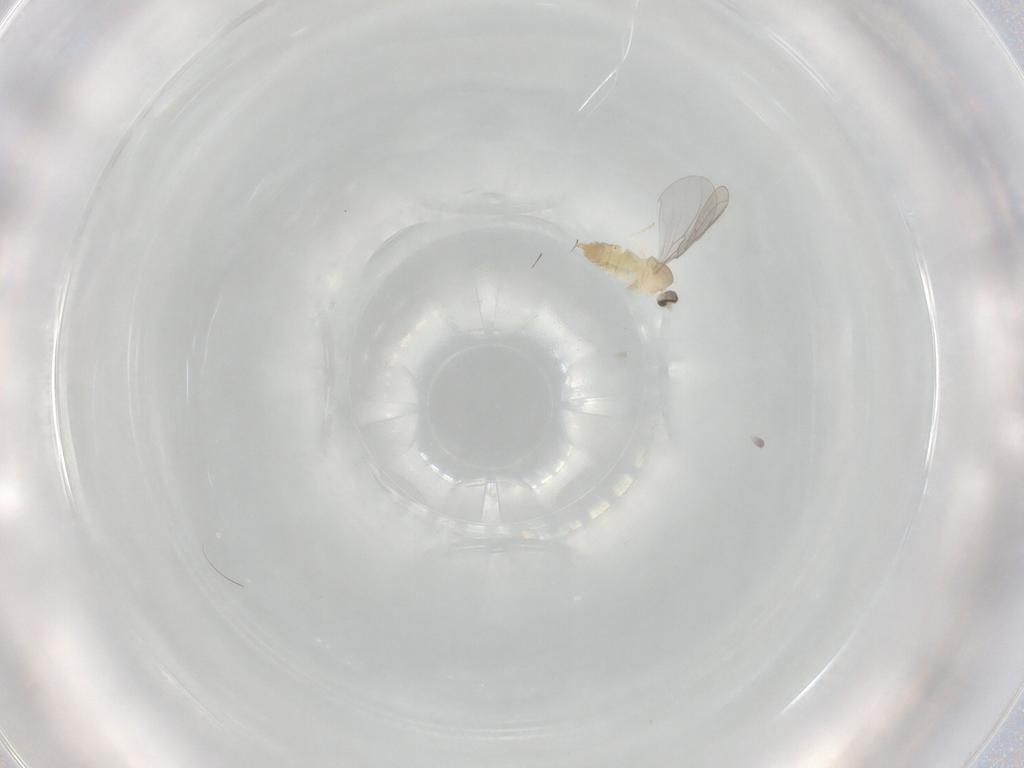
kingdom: Animalia
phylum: Arthropoda
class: Insecta
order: Diptera
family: Cecidomyiidae
